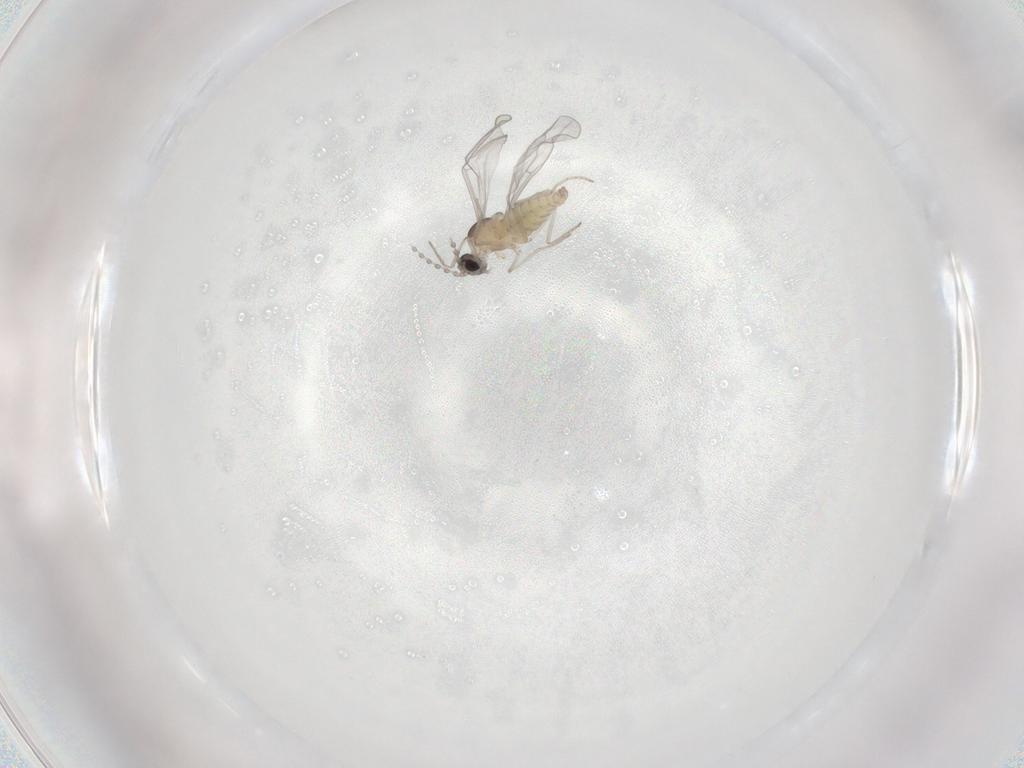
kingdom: Animalia
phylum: Arthropoda
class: Insecta
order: Diptera
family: Cecidomyiidae
